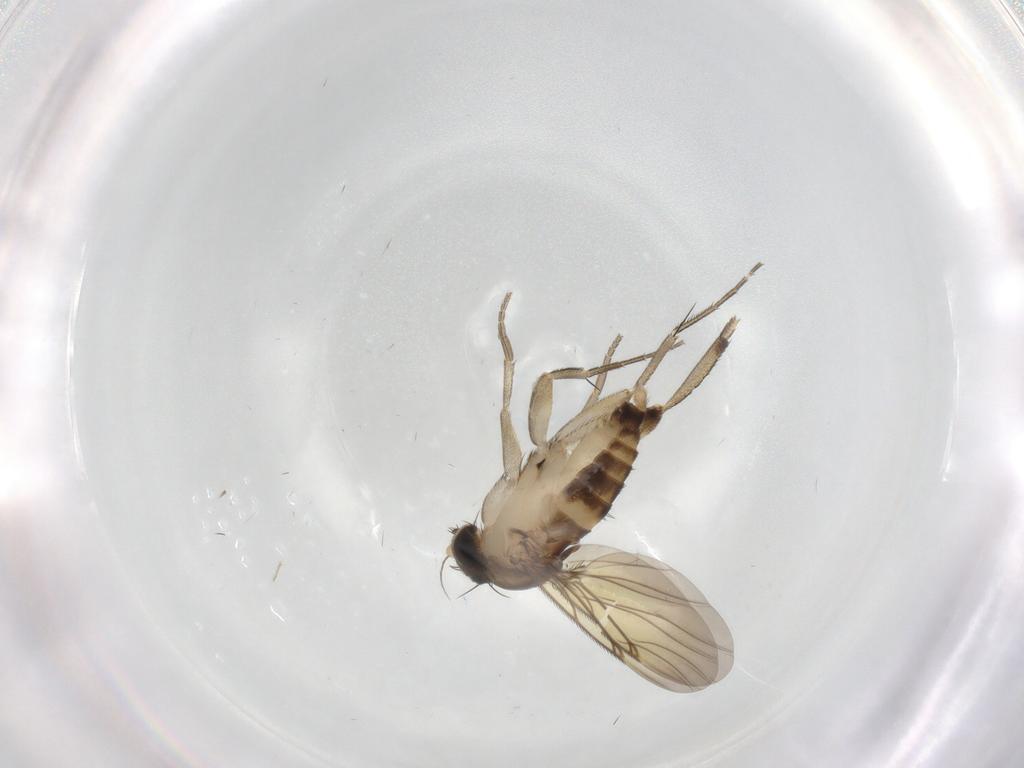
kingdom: Animalia
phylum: Arthropoda
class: Insecta
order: Diptera
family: Phoridae
